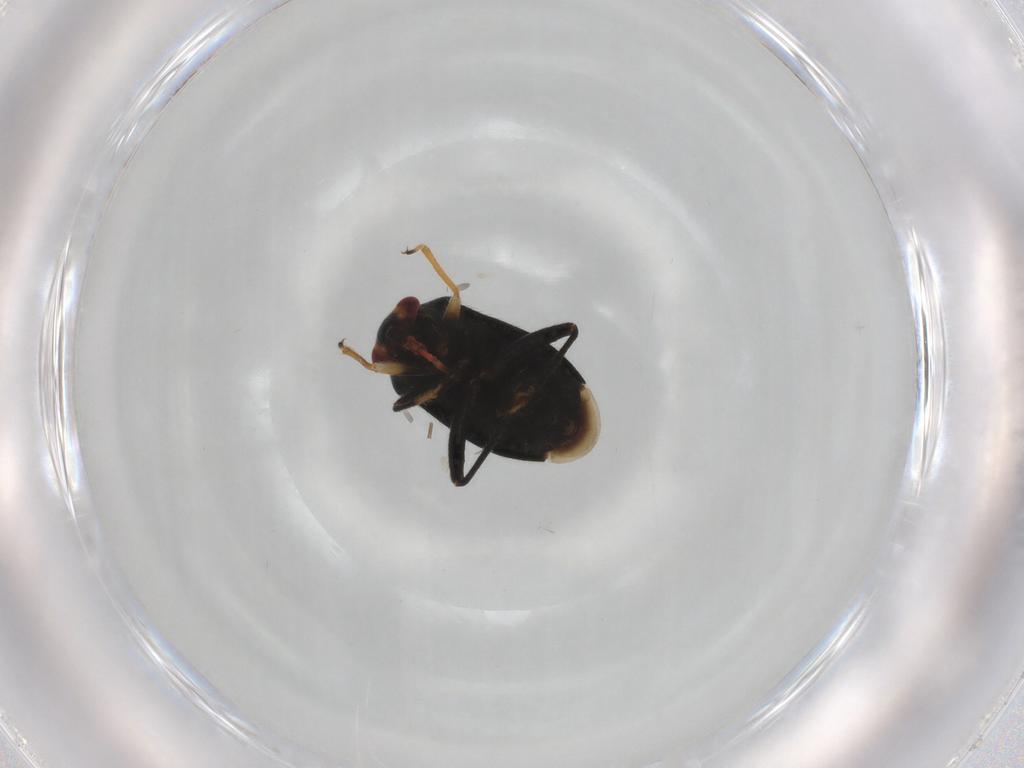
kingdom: Animalia
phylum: Arthropoda
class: Insecta
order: Hemiptera
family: Miridae
